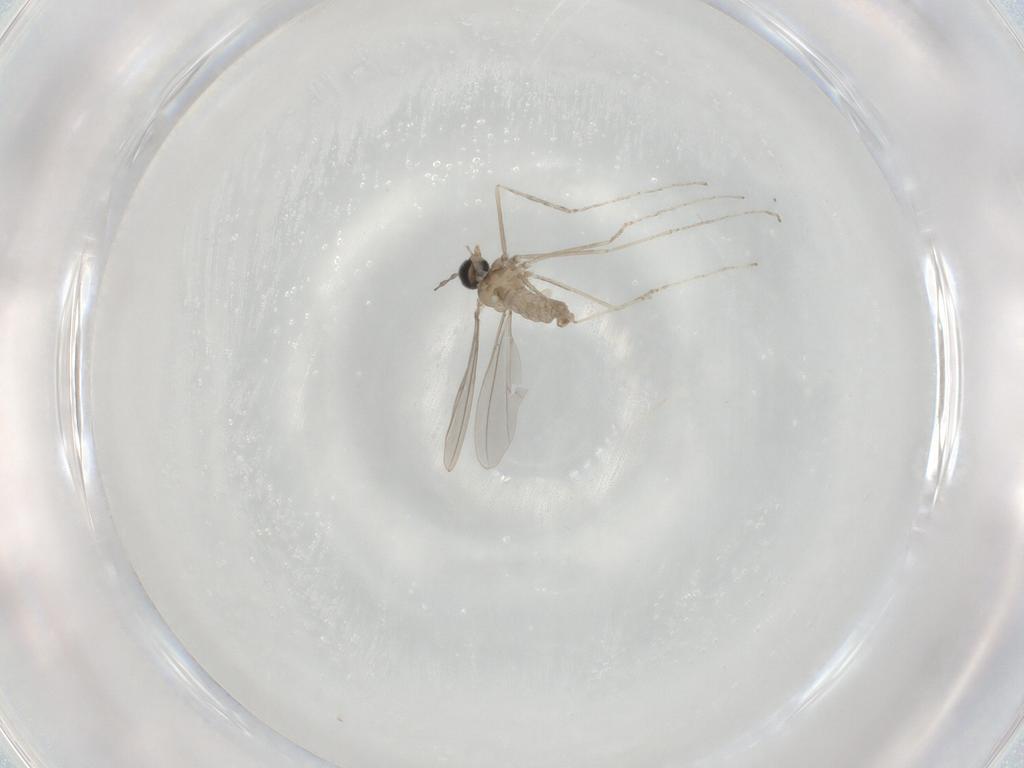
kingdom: Animalia
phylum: Arthropoda
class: Insecta
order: Diptera
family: Cecidomyiidae
